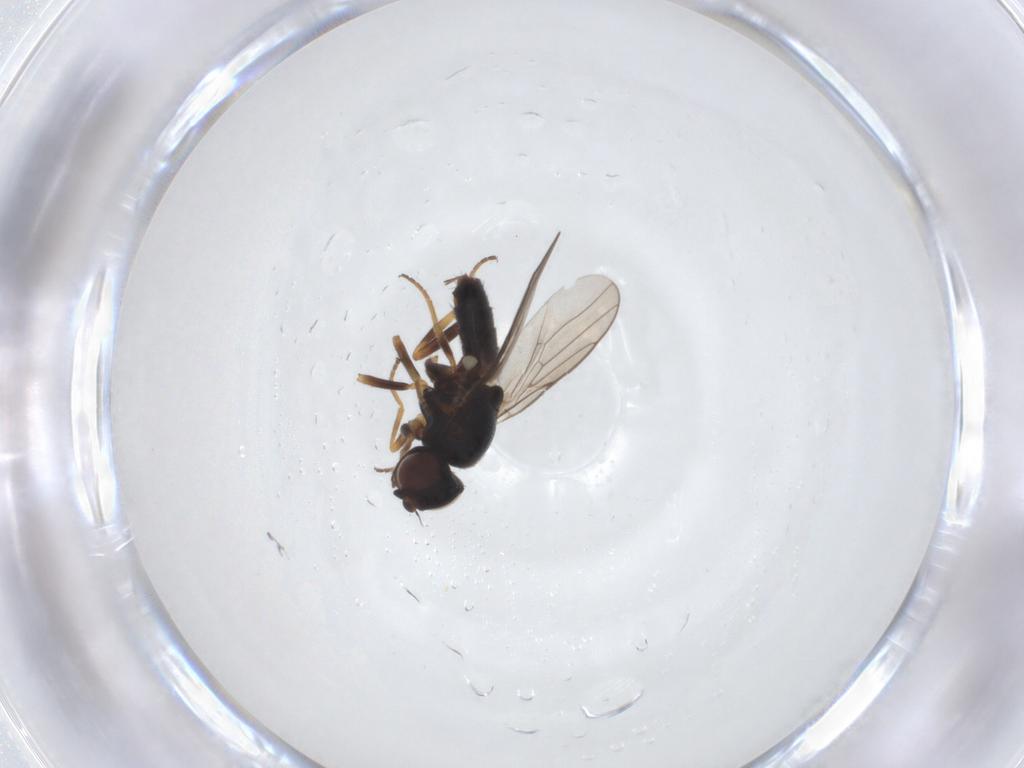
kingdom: Animalia
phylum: Arthropoda
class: Insecta
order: Diptera
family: Chloropidae
